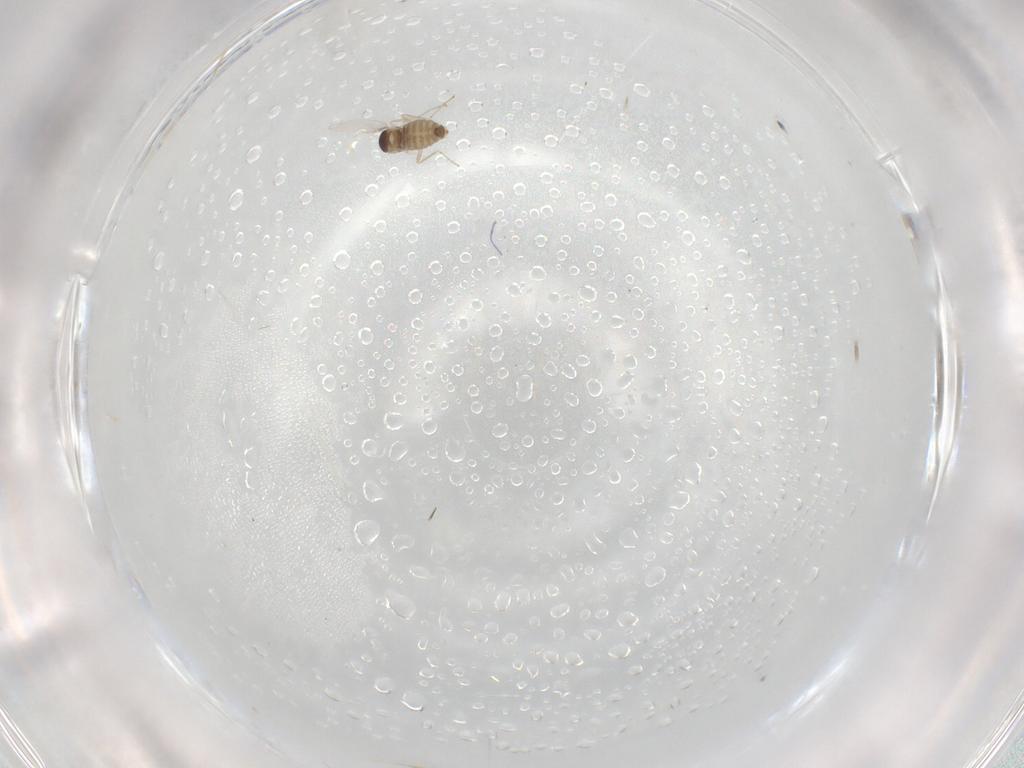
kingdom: Animalia
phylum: Arthropoda
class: Insecta
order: Diptera
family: Cecidomyiidae
